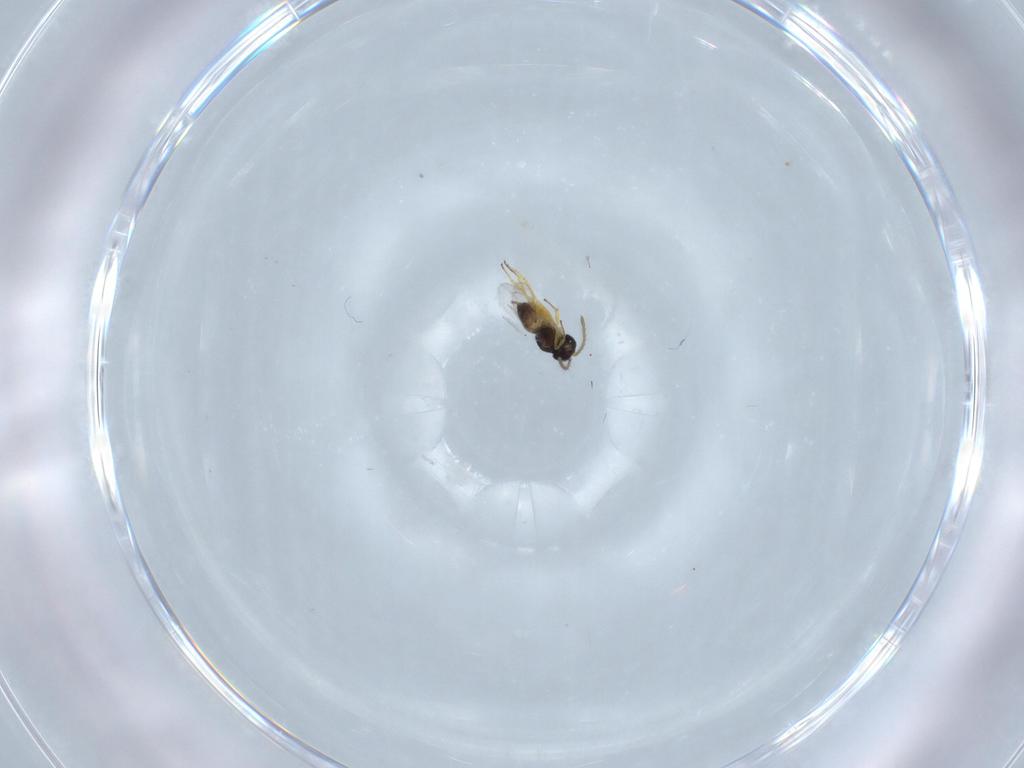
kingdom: Animalia
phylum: Arthropoda
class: Insecta
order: Hymenoptera
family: Encyrtidae
